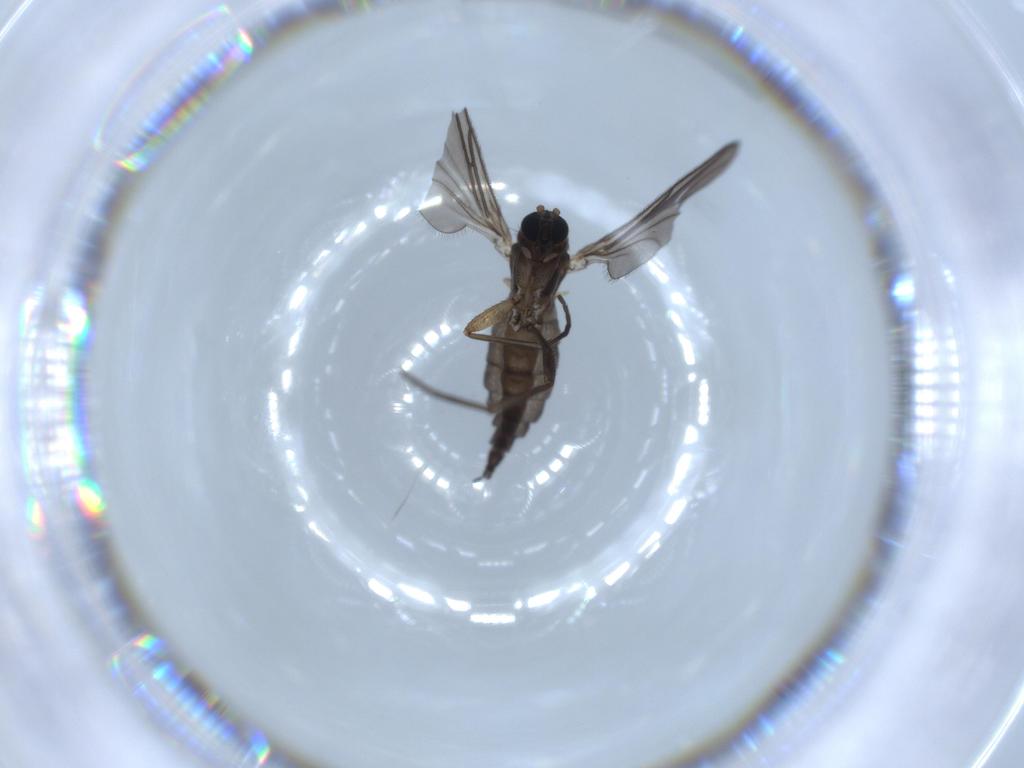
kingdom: Animalia
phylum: Arthropoda
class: Insecta
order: Diptera
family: Sciaridae
